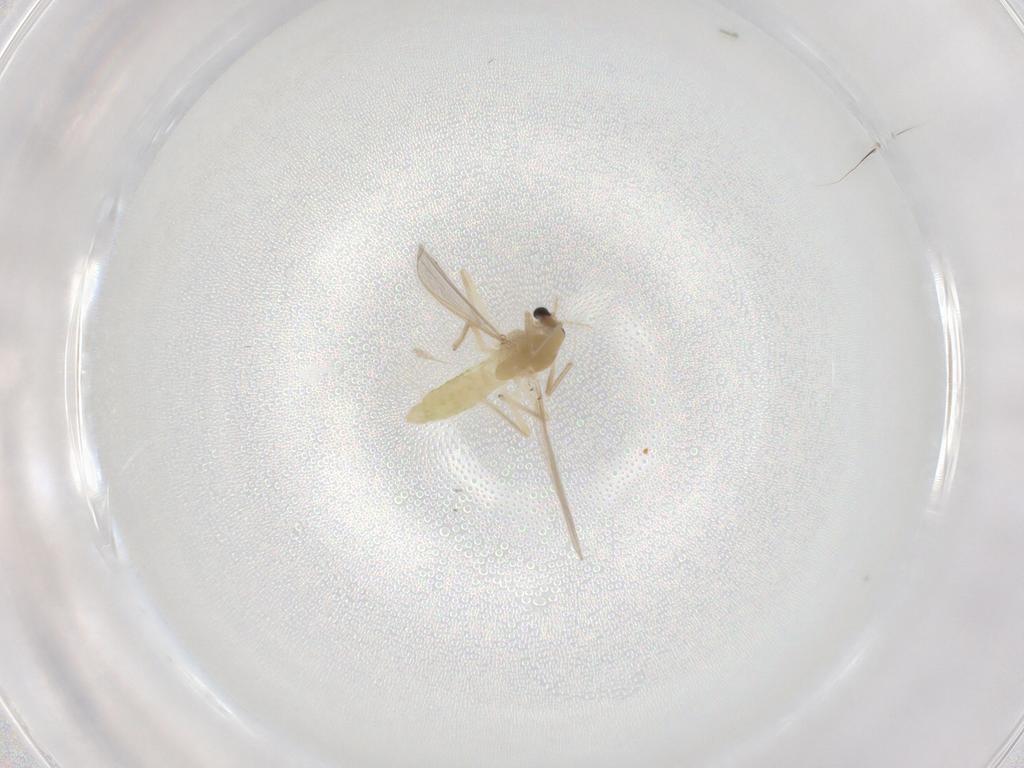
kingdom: Animalia
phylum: Arthropoda
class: Insecta
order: Diptera
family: Chironomidae
